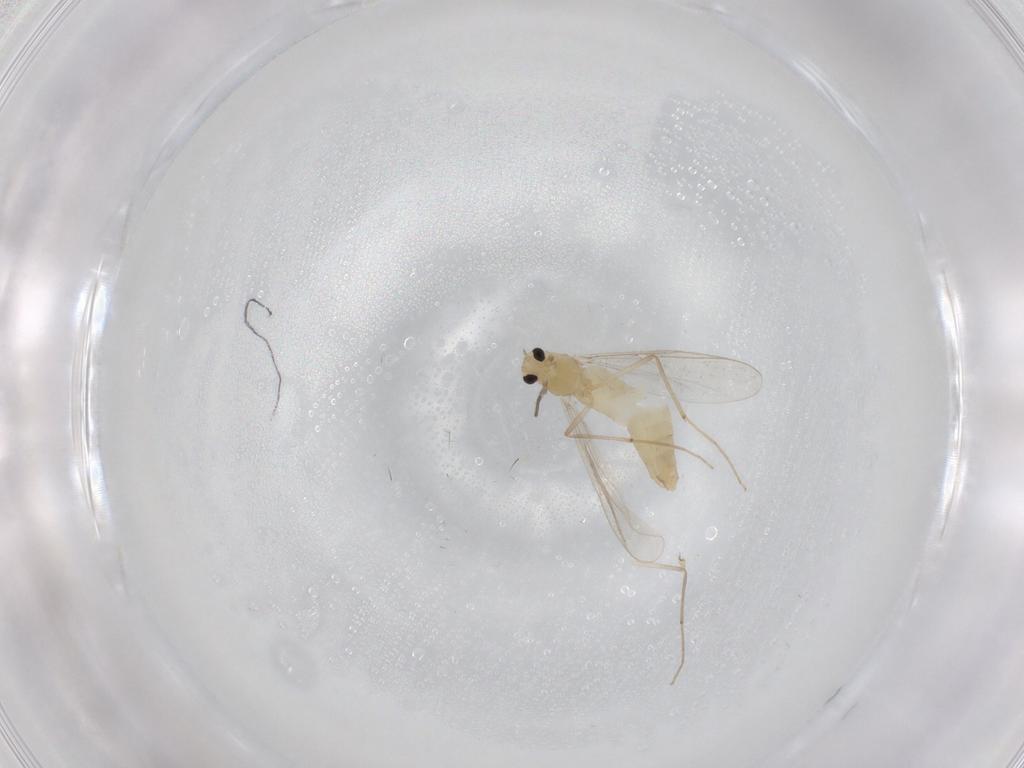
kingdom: Animalia
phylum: Arthropoda
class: Insecta
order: Diptera
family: Chironomidae
